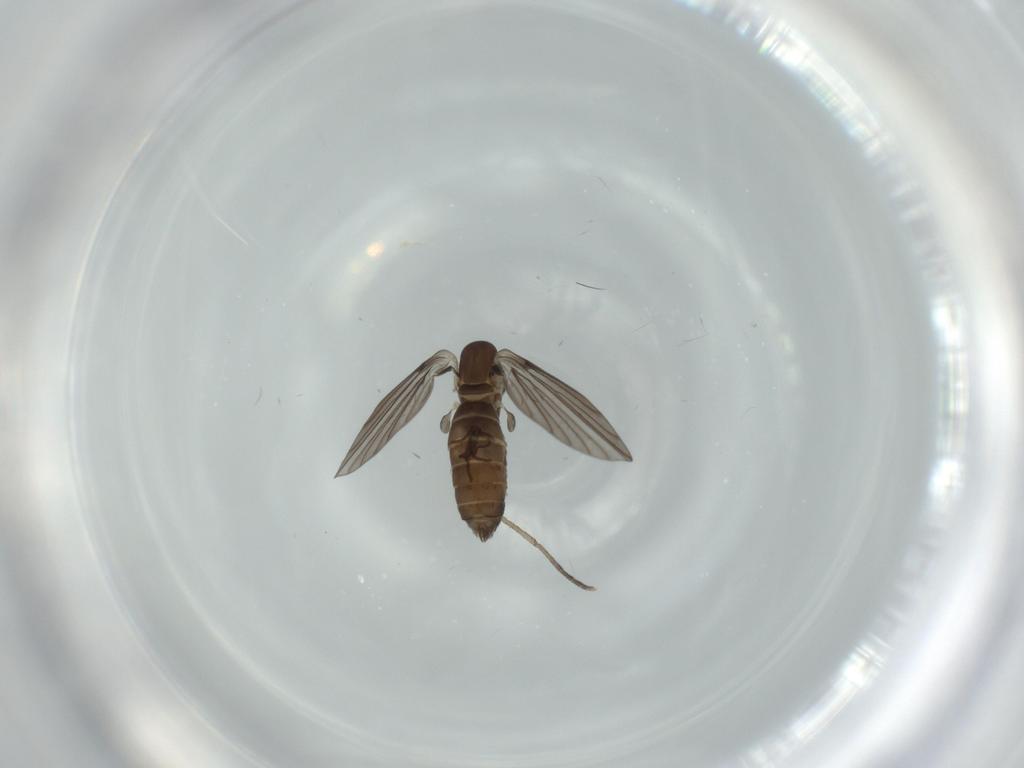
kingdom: Animalia
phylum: Arthropoda
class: Insecta
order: Diptera
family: Psychodidae
